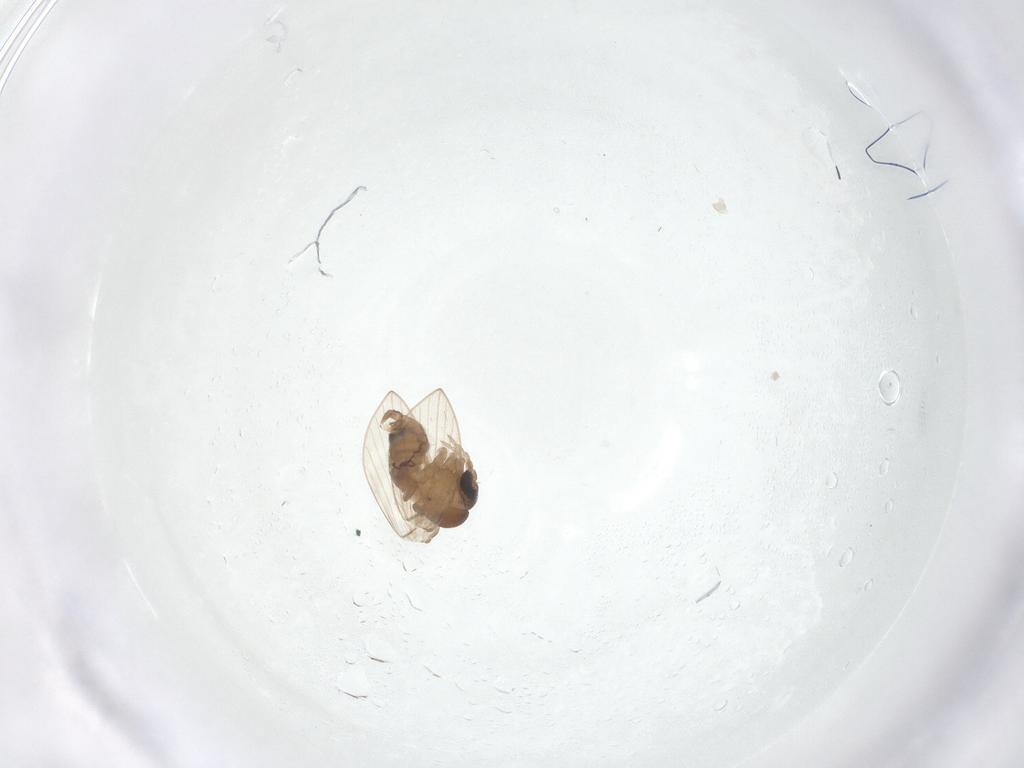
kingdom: Animalia
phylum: Arthropoda
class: Insecta
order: Diptera
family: Psychodidae
